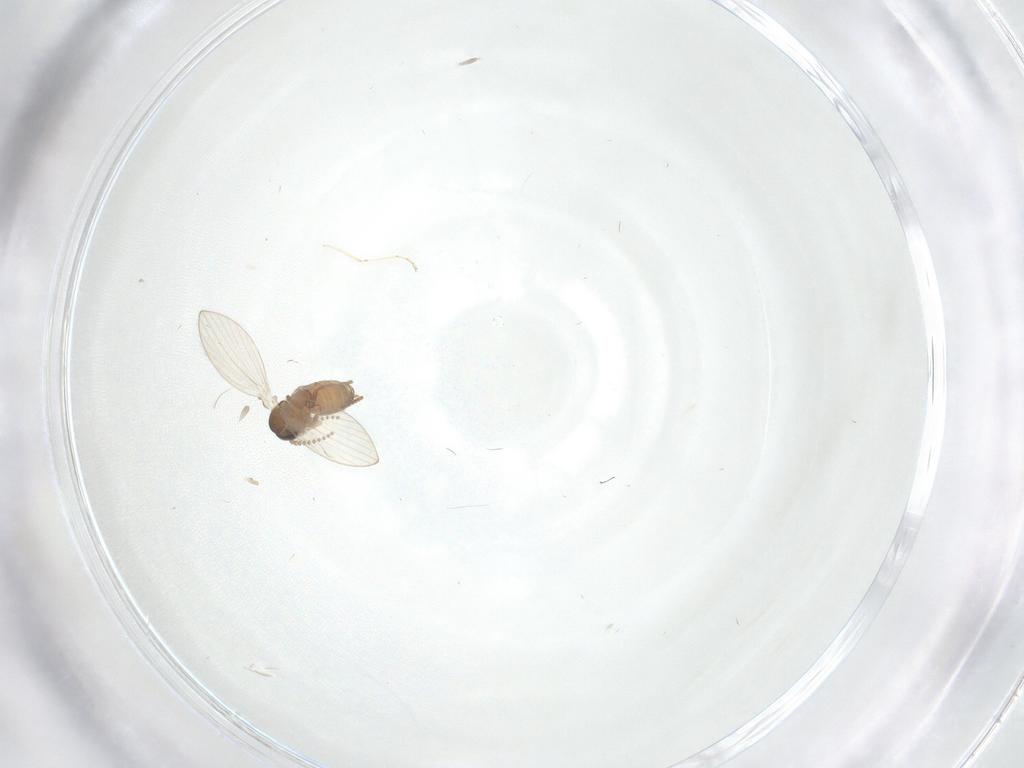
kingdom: Animalia
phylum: Arthropoda
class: Insecta
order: Diptera
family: Psychodidae
